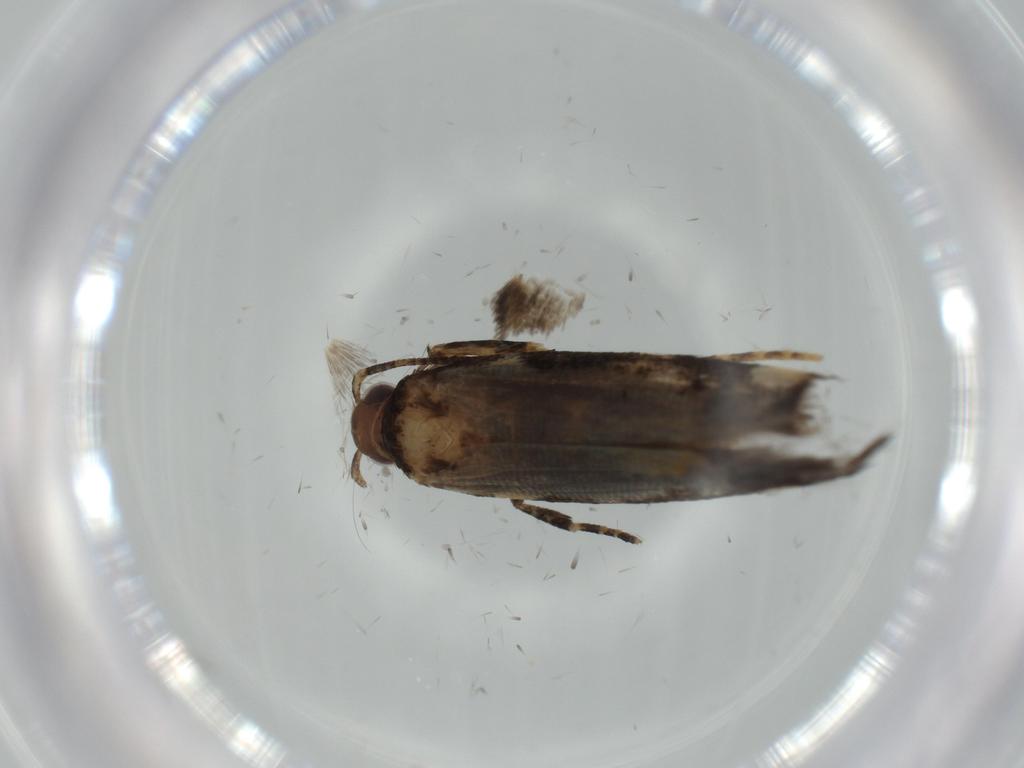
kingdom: Animalia
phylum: Arthropoda
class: Insecta
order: Lepidoptera
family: Gelechiidae
